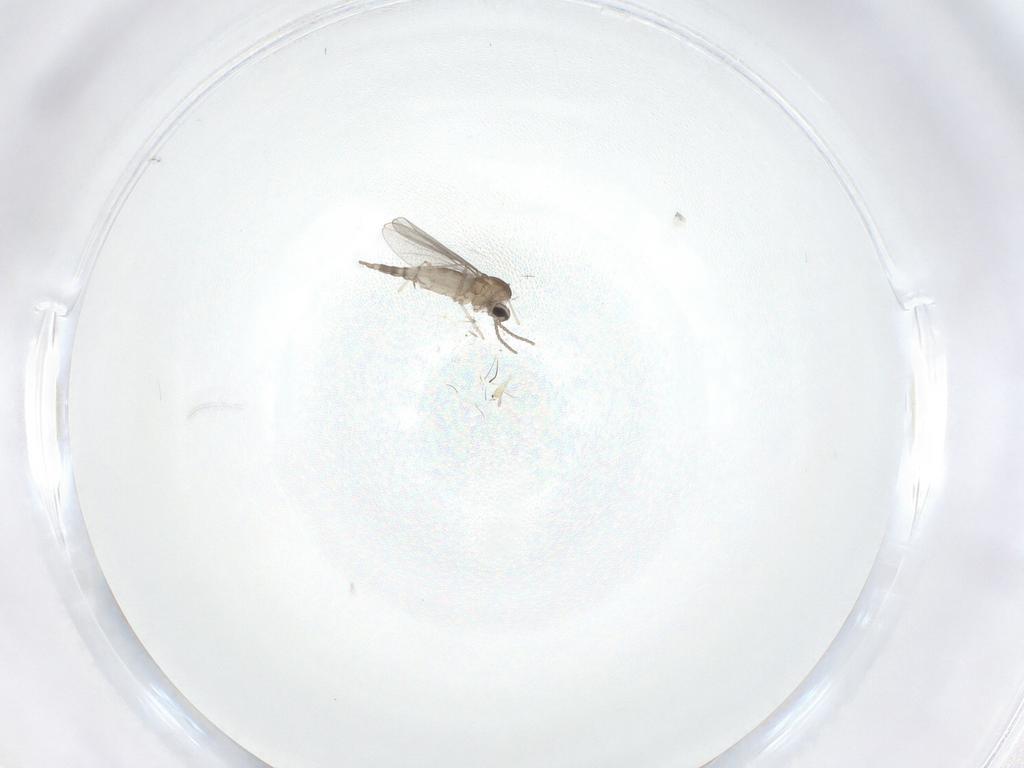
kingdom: Animalia
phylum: Arthropoda
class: Insecta
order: Diptera
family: Cecidomyiidae
